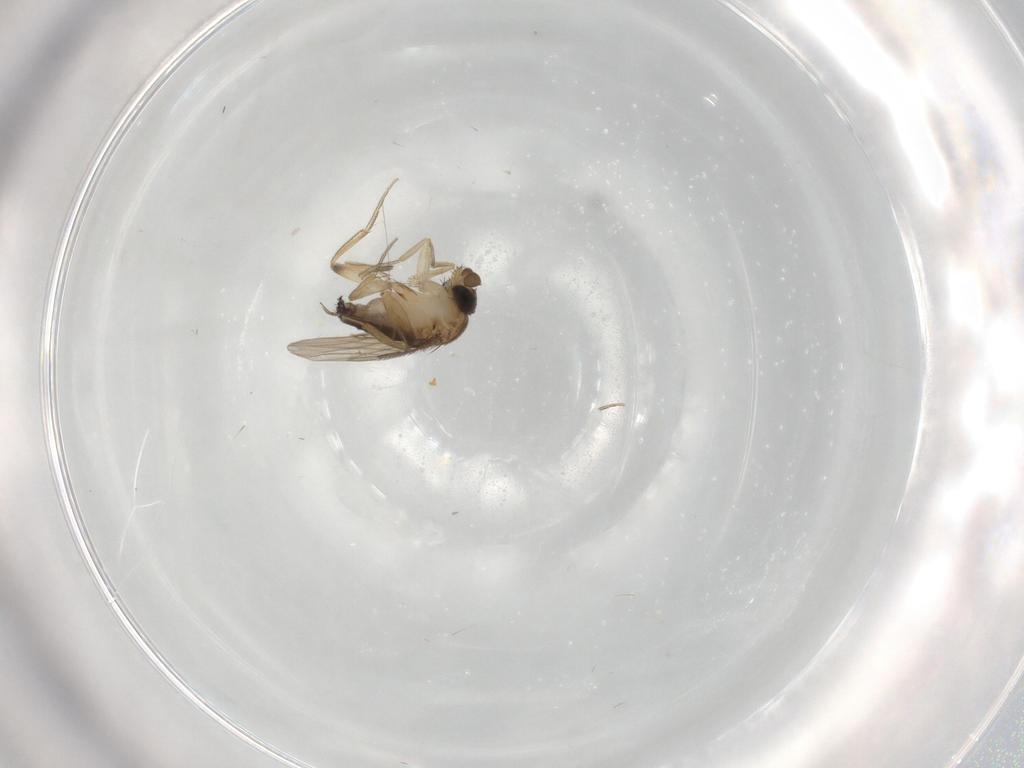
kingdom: Animalia
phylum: Arthropoda
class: Insecta
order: Diptera
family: Phoridae
